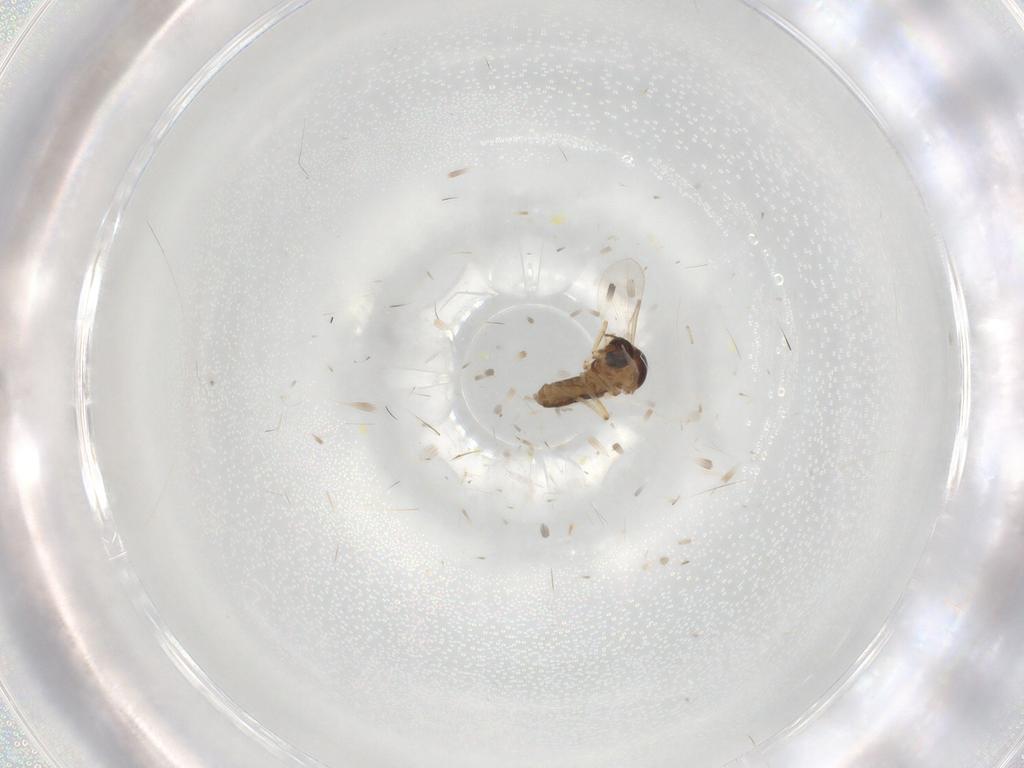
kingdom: Animalia
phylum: Arthropoda
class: Insecta
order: Diptera
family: Ceratopogonidae
